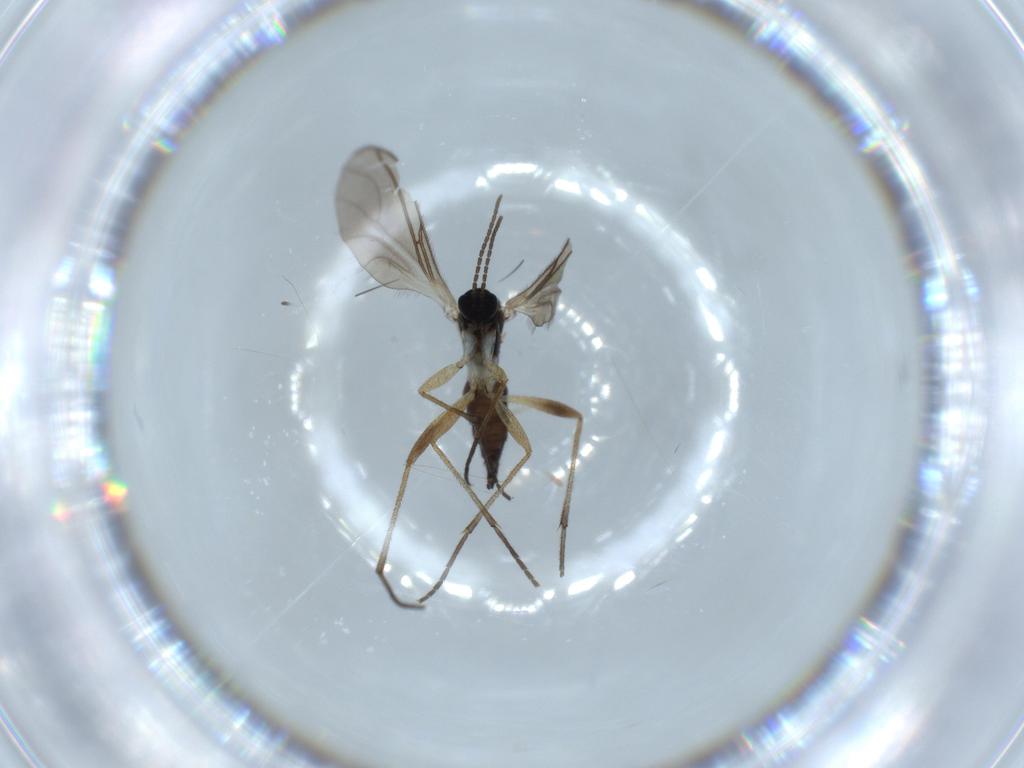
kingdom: Animalia
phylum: Arthropoda
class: Insecta
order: Diptera
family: Sciaridae
